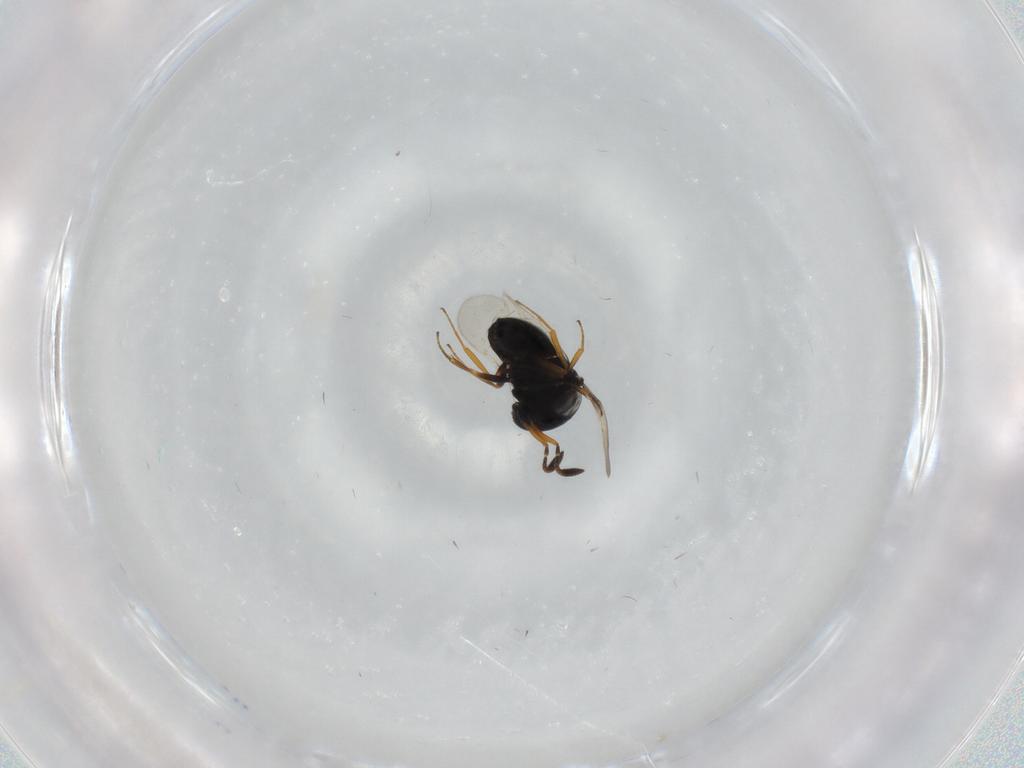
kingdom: Animalia
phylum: Arthropoda
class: Insecta
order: Hymenoptera
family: Scelionidae
